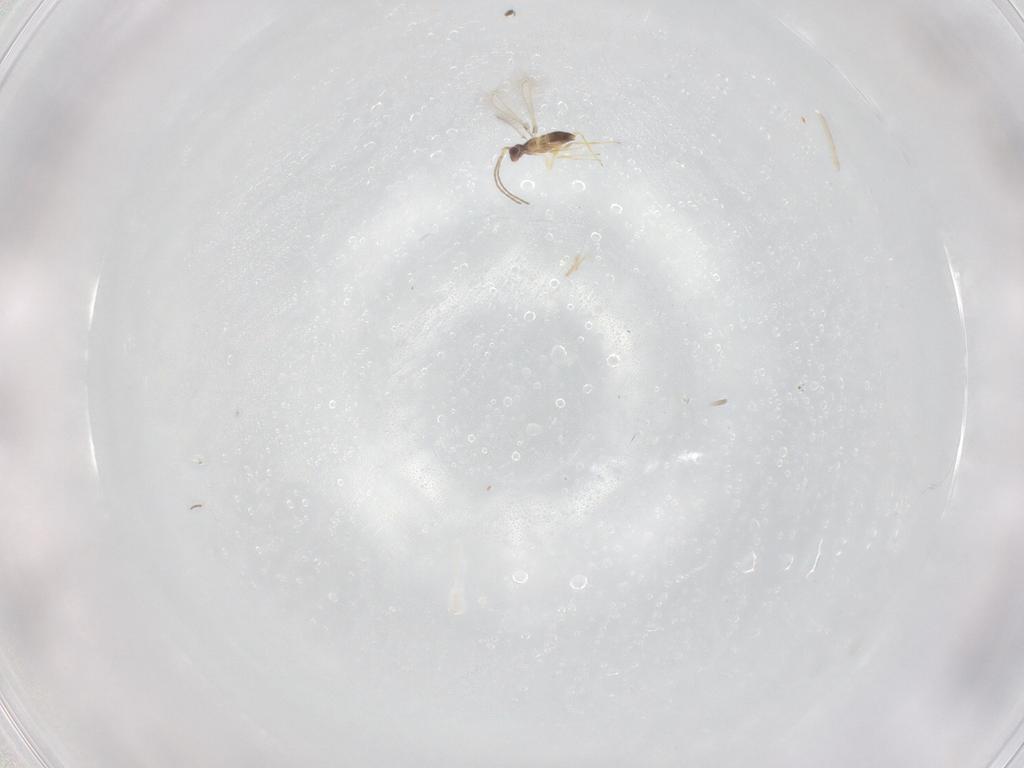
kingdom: Animalia
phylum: Arthropoda
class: Insecta
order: Hymenoptera
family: Mymaridae
